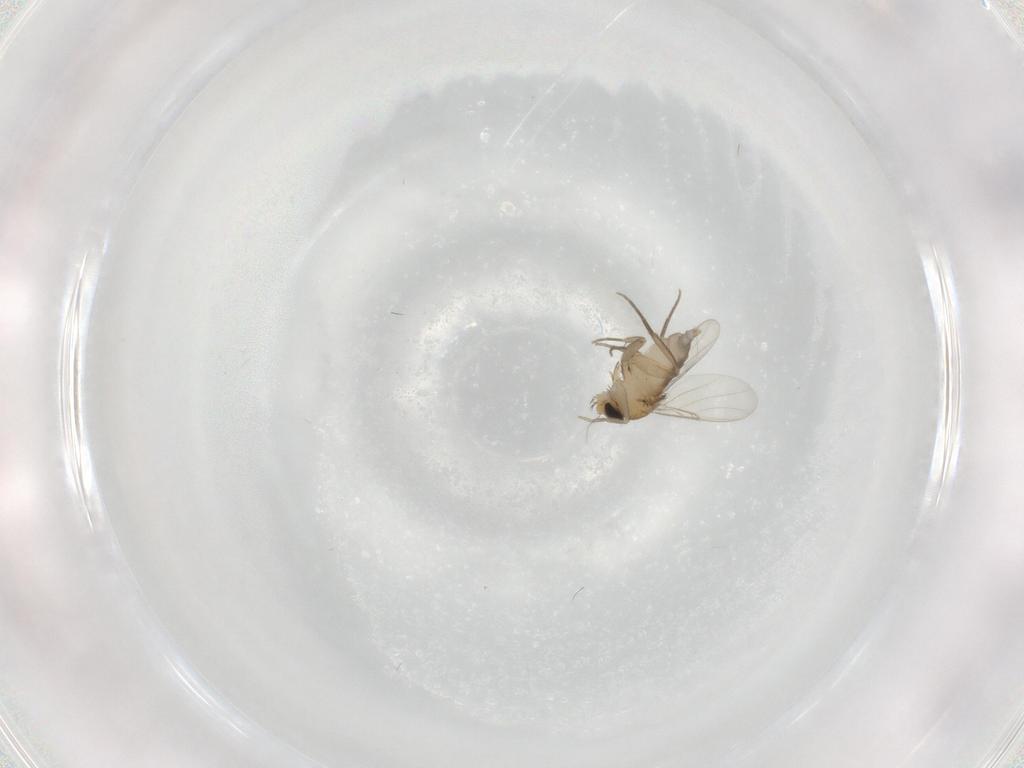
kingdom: Animalia
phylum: Arthropoda
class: Insecta
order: Diptera
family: Phoridae
